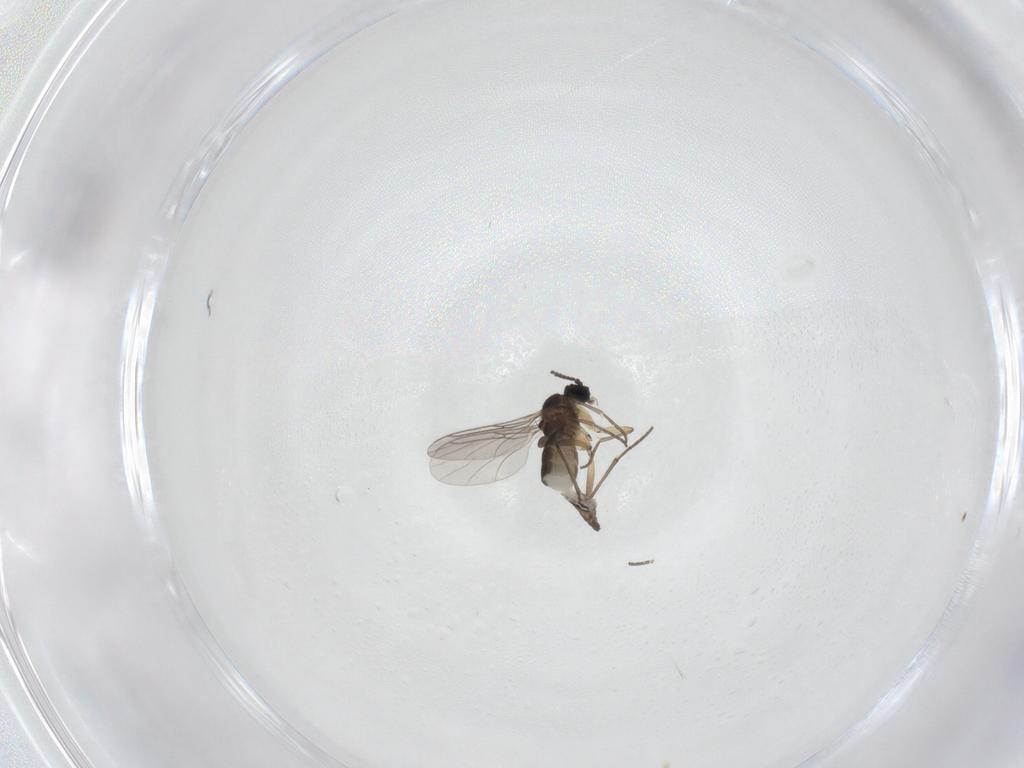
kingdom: Animalia
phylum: Arthropoda
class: Insecta
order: Diptera
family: Sciaridae
